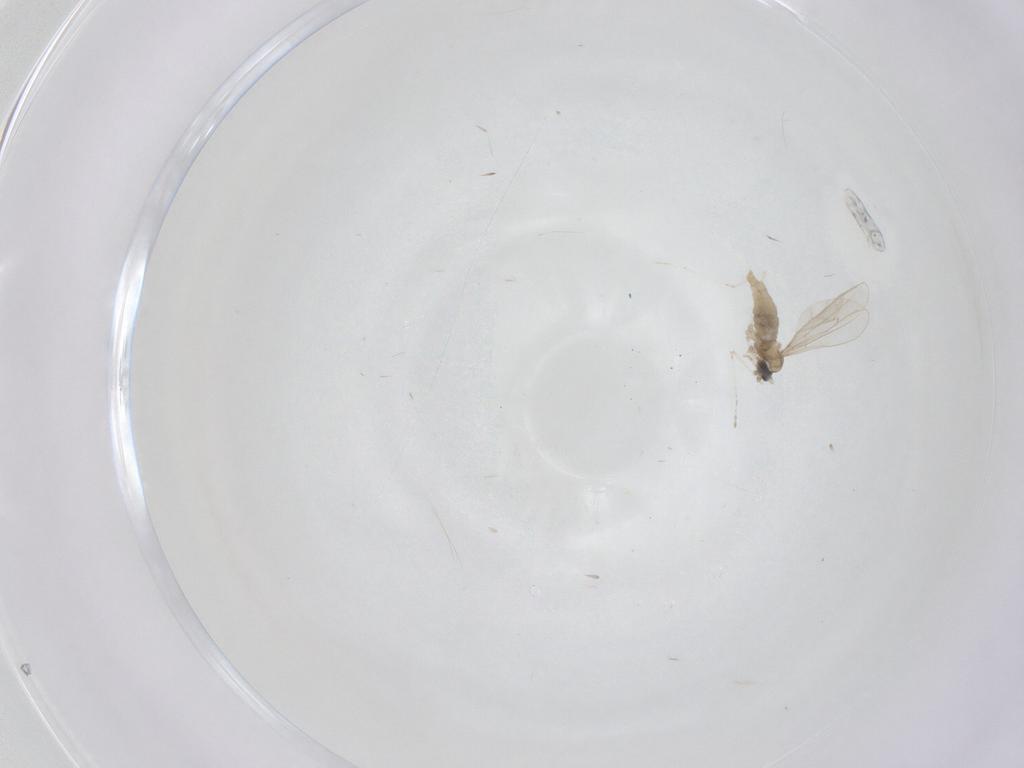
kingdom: Animalia
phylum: Arthropoda
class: Insecta
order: Diptera
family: Cecidomyiidae
